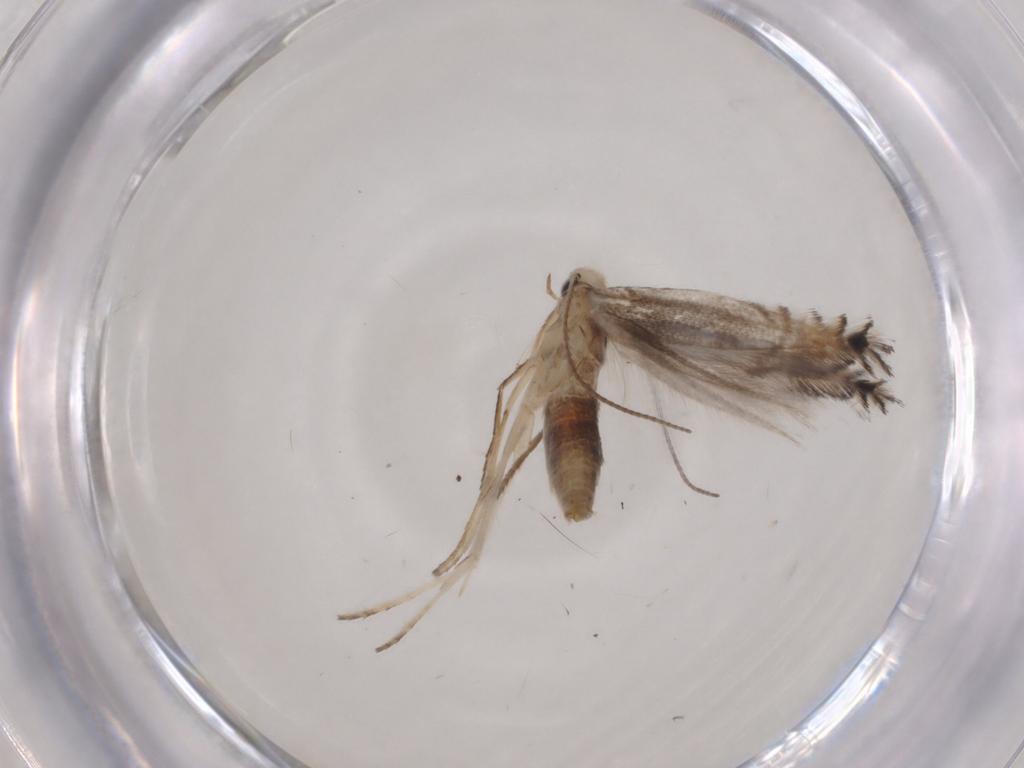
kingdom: Animalia
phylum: Arthropoda
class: Insecta
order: Lepidoptera
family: Gracillariidae
